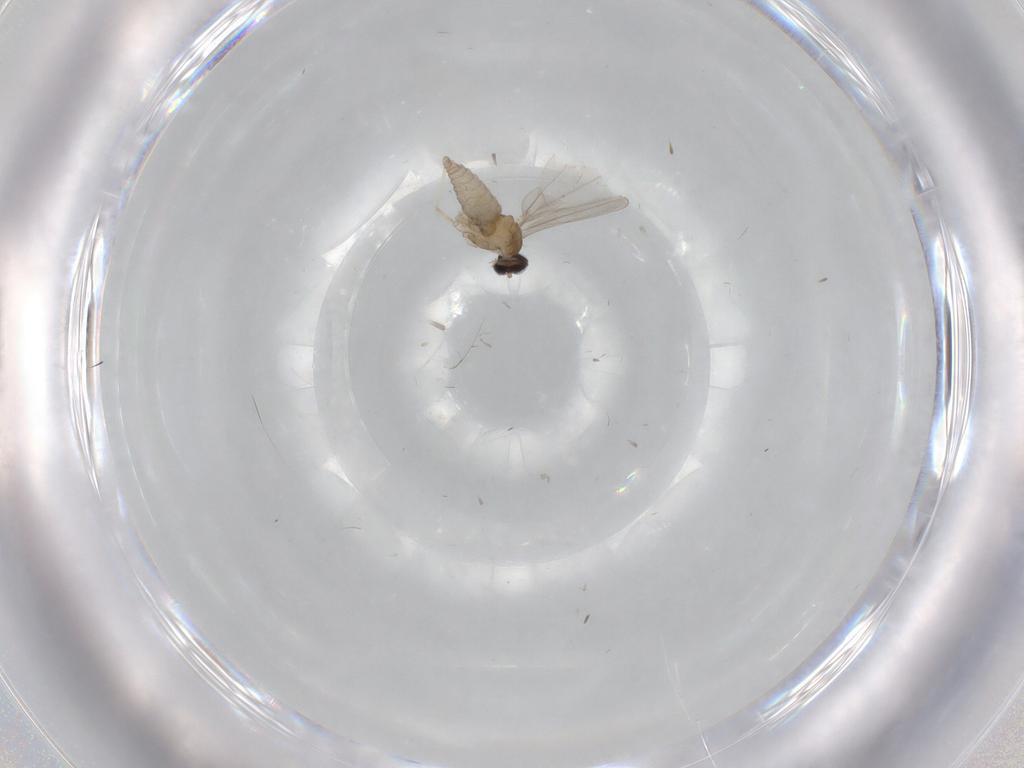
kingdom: Animalia
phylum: Arthropoda
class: Insecta
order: Diptera
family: Cecidomyiidae
